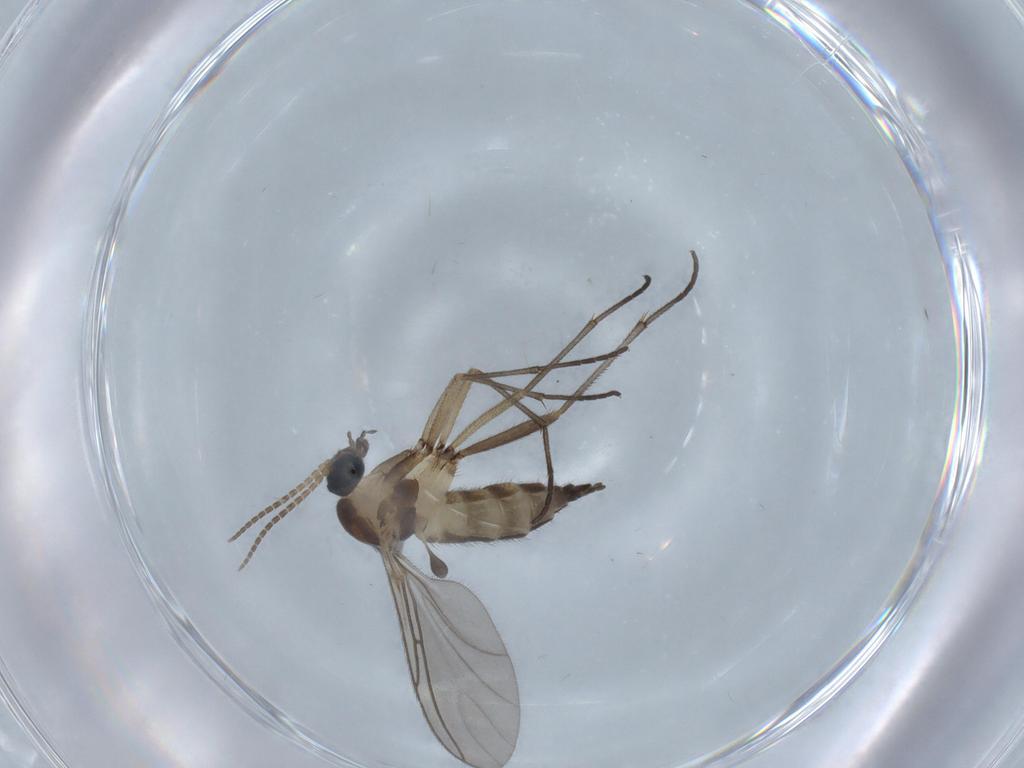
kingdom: Animalia
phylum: Arthropoda
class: Insecta
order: Diptera
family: Sciaridae
